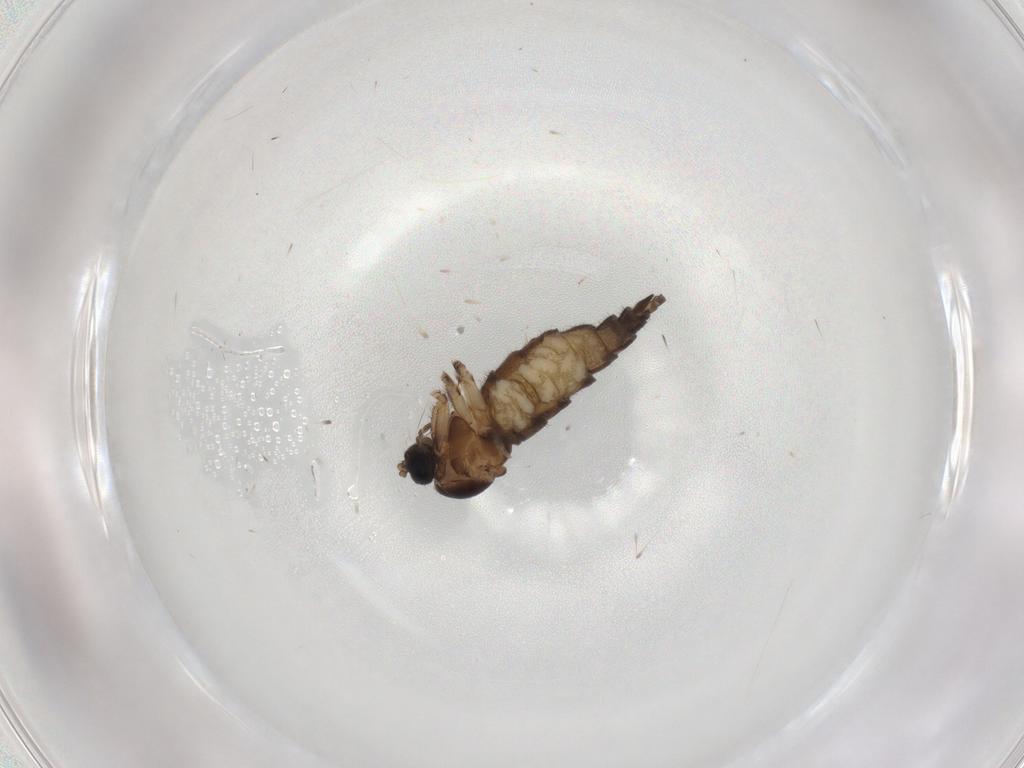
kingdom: Animalia
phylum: Arthropoda
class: Insecta
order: Diptera
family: Sciaridae
